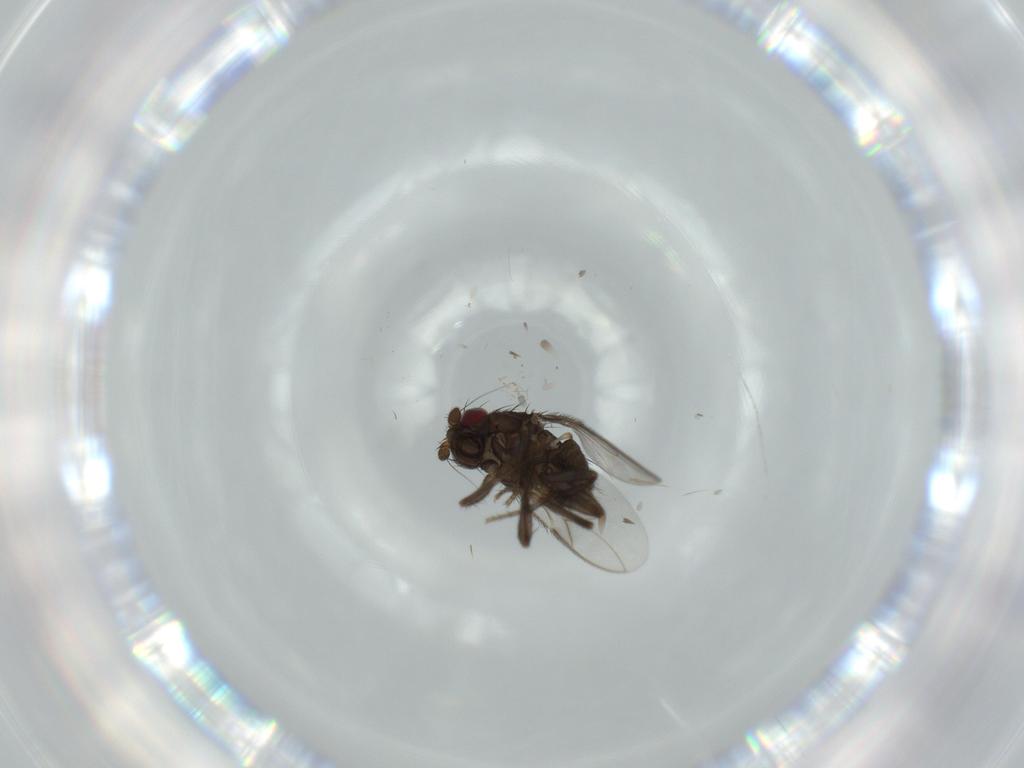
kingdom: Animalia
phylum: Arthropoda
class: Insecta
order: Diptera
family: Sphaeroceridae
